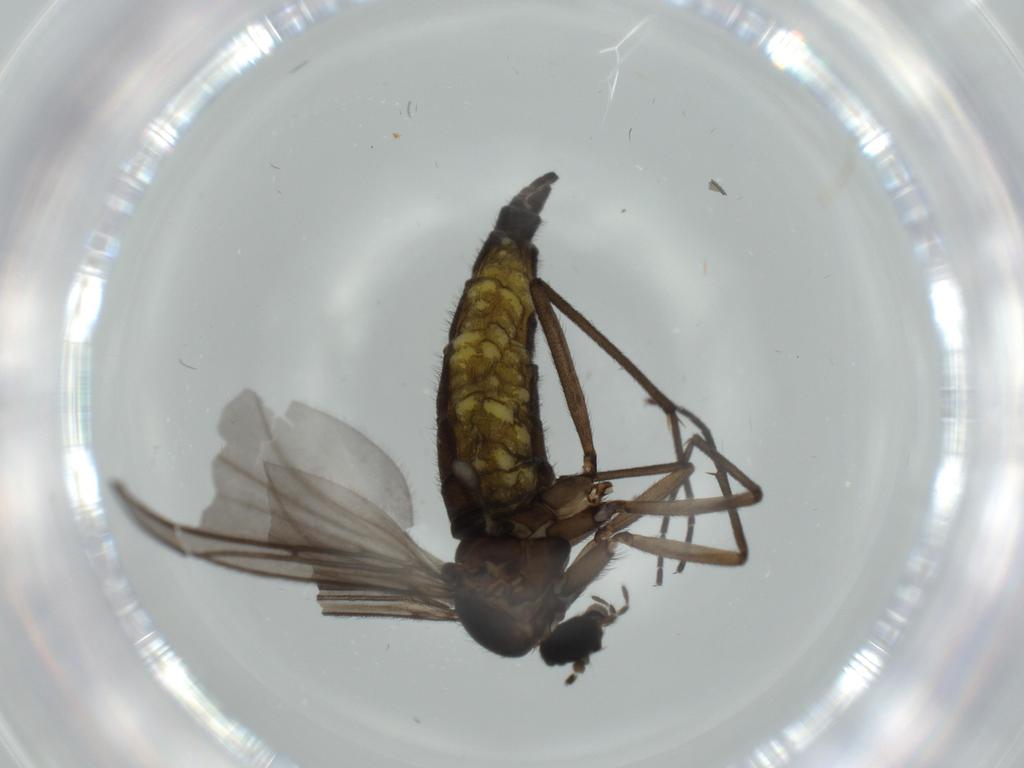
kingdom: Animalia
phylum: Arthropoda
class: Insecta
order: Diptera
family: Sciaridae
